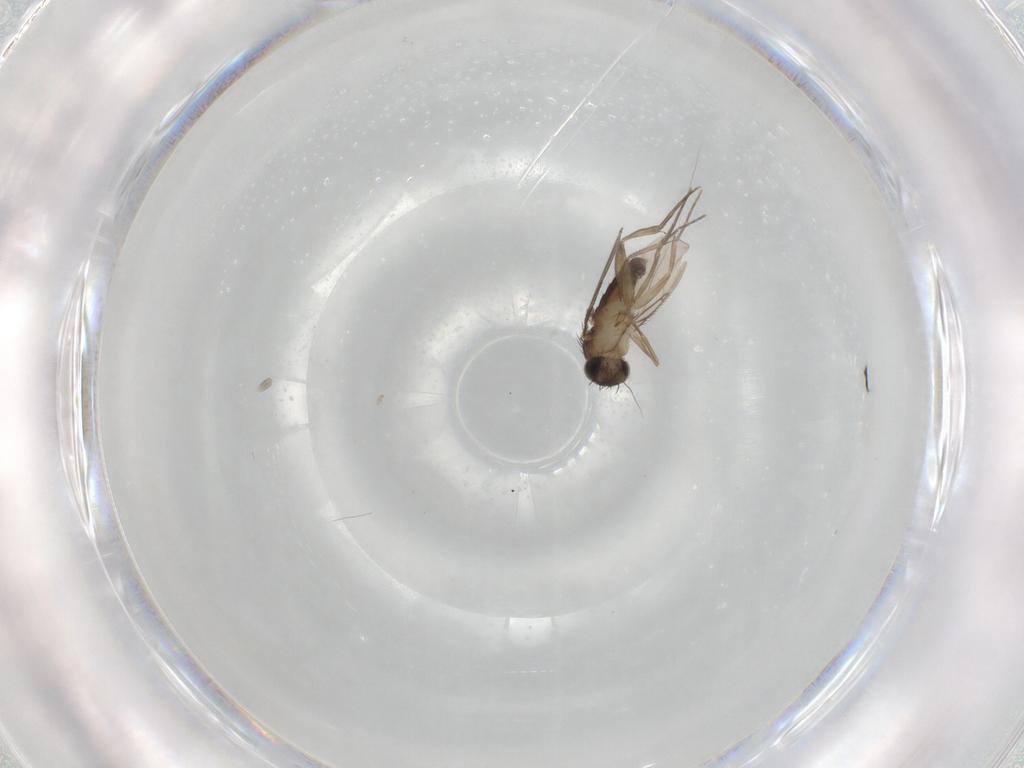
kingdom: Animalia
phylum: Arthropoda
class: Insecta
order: Diptera
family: Phoridae
